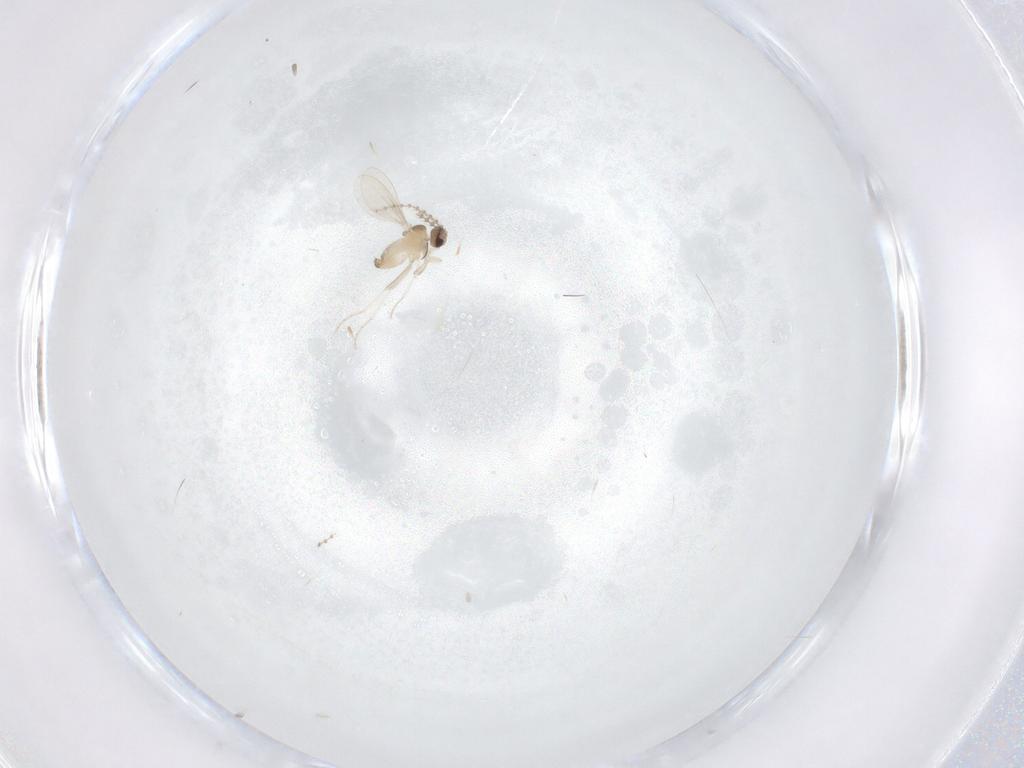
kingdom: Animalia
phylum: Arthropoda
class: Insecta
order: Diptera
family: Cecidomyiidae
